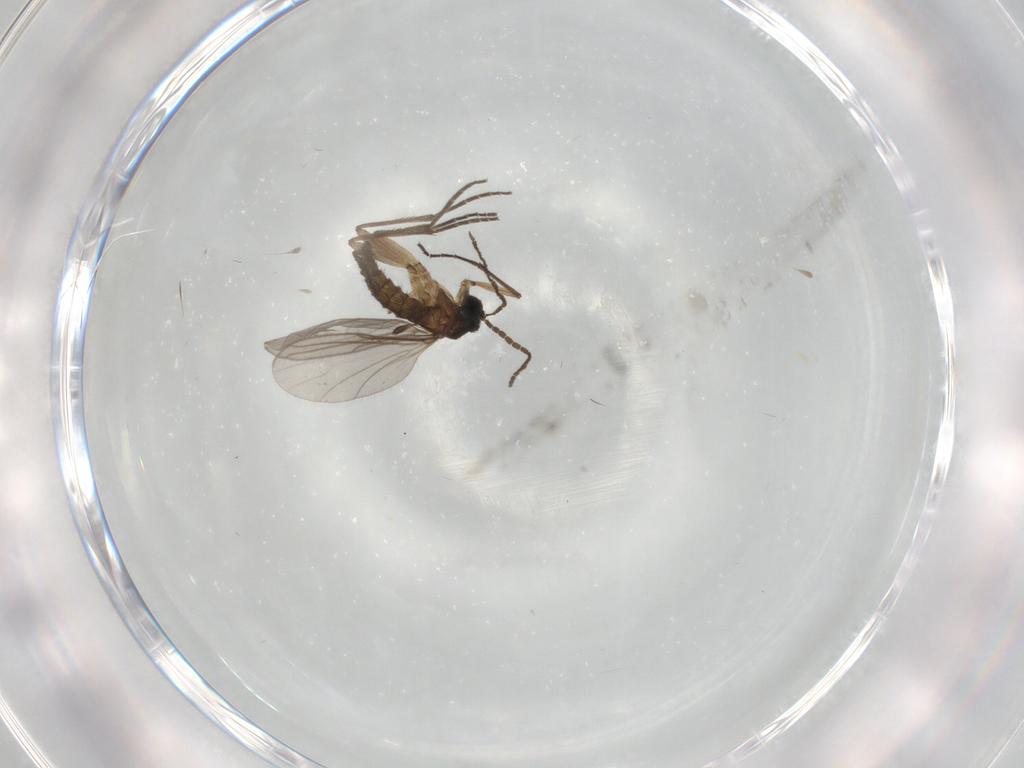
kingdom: Animalia
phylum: Arthropoda
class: Insecta
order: Diptera
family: Sciaridae
